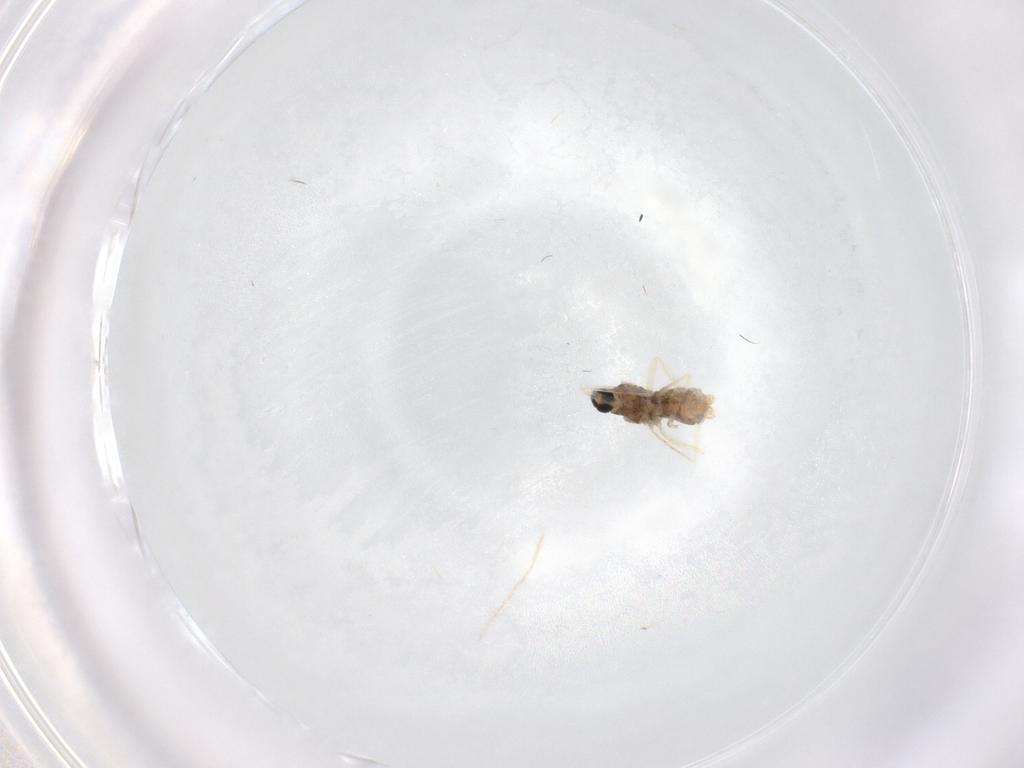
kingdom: Animalia
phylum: Arthropoda
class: Insecta
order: Diptera
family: Cecidomyiidae
